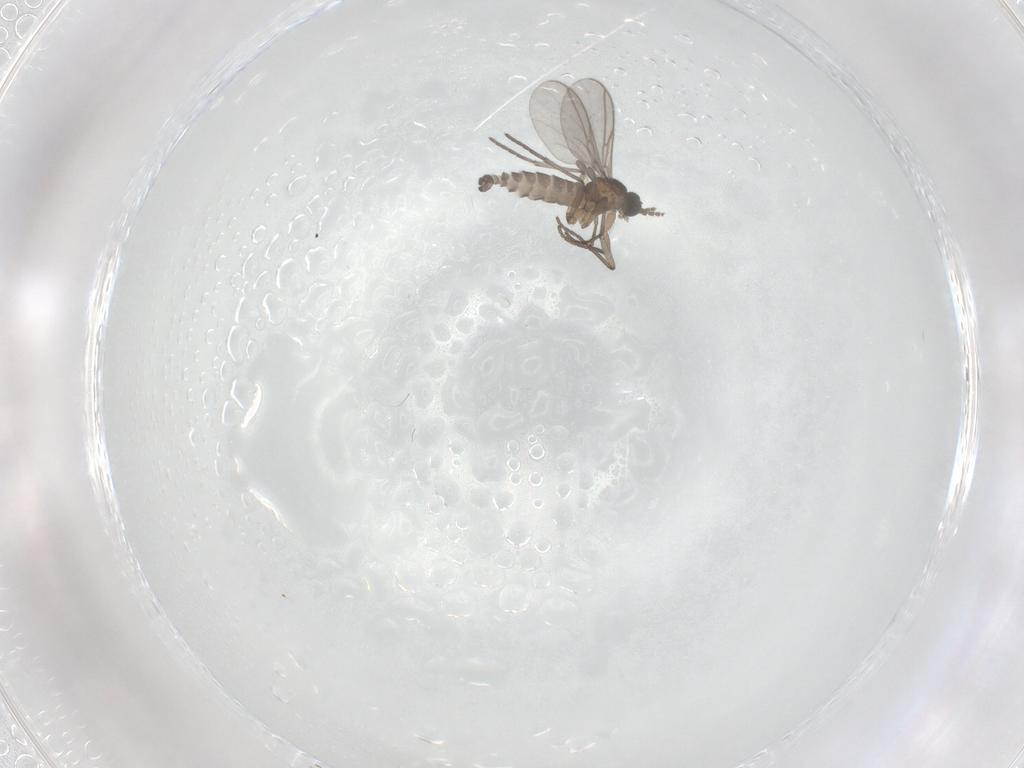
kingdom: Animalia
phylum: Arthropoda
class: Insecta
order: Diptera
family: Sciaridae
